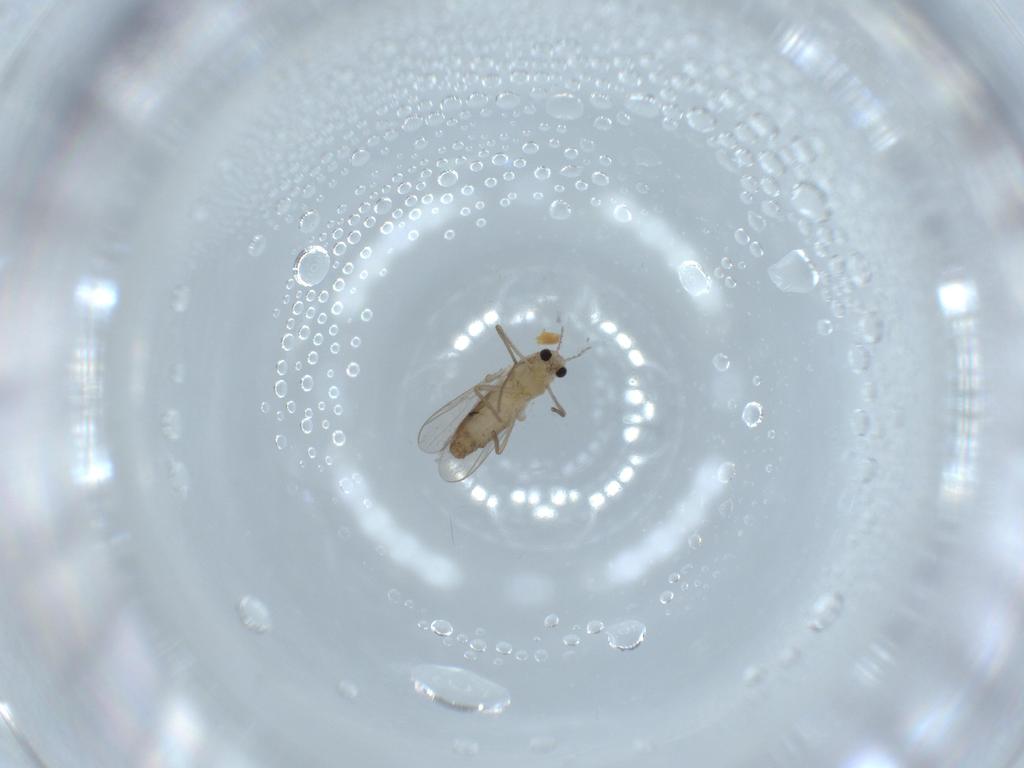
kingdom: Animalia
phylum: Arthropoda
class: Insecta
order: Diptera
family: Chironomidae
